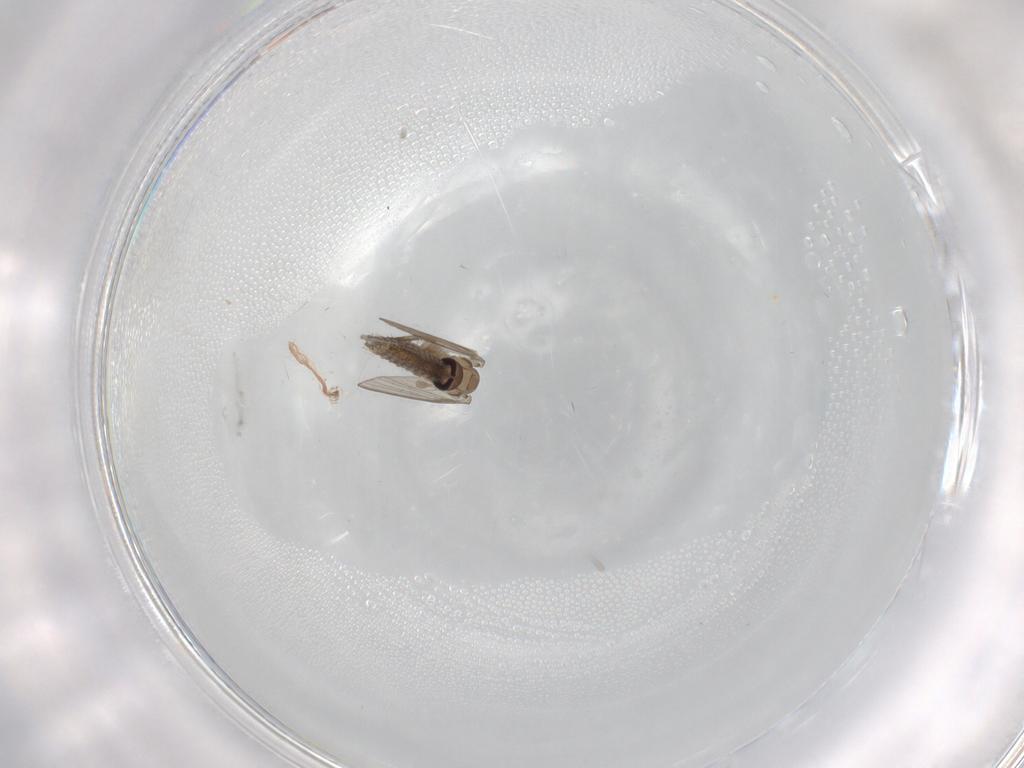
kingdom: Animalia
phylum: Arthropoda
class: Insecta
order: Diptera
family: Psychodidae
